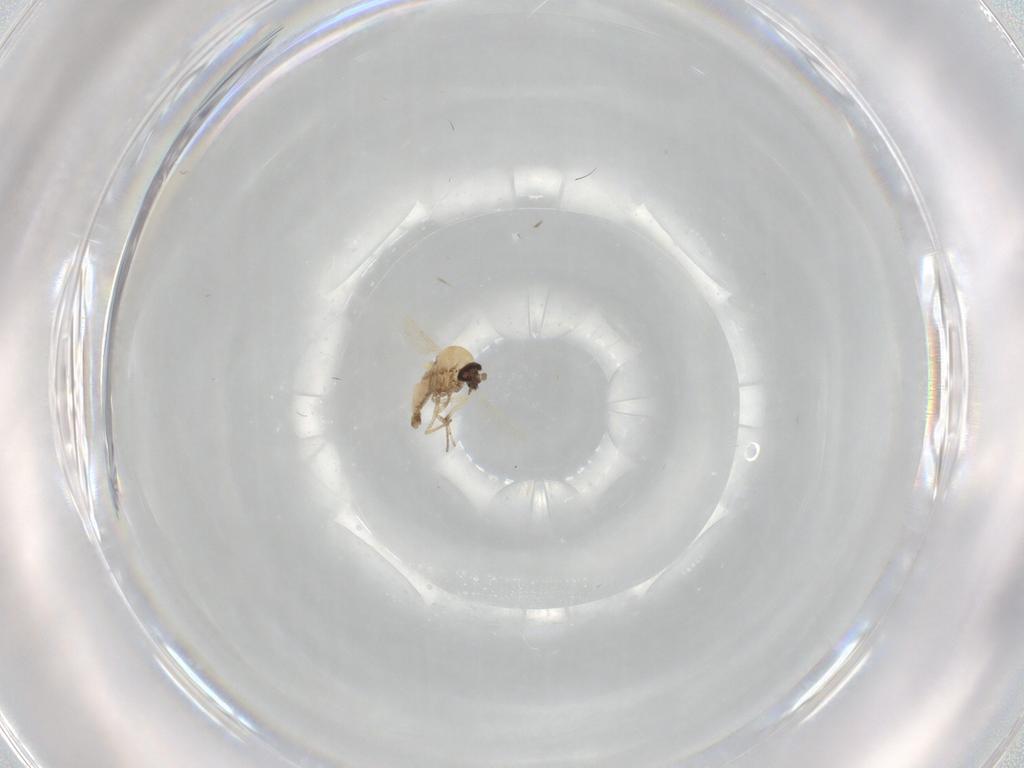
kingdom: Animalia
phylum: Arthropoda
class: Insecta
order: Diptera
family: Ceratopogonidae
